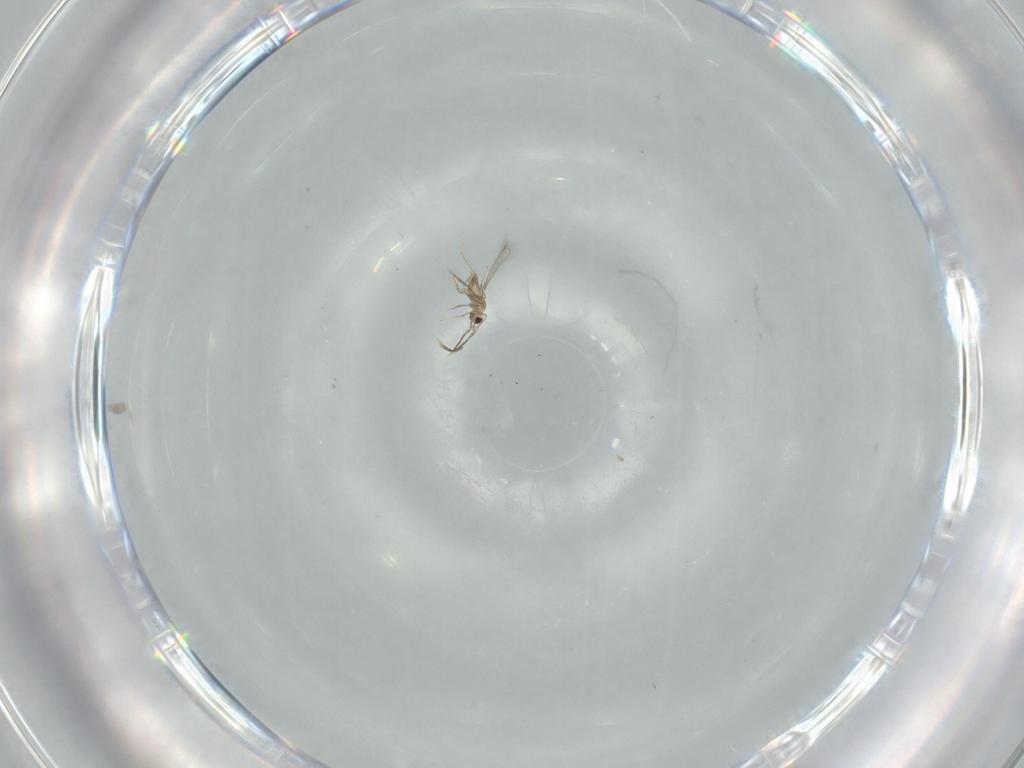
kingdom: Animalia
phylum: Arthropoda
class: Insecta
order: Hymenoptera
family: Mymaridae
